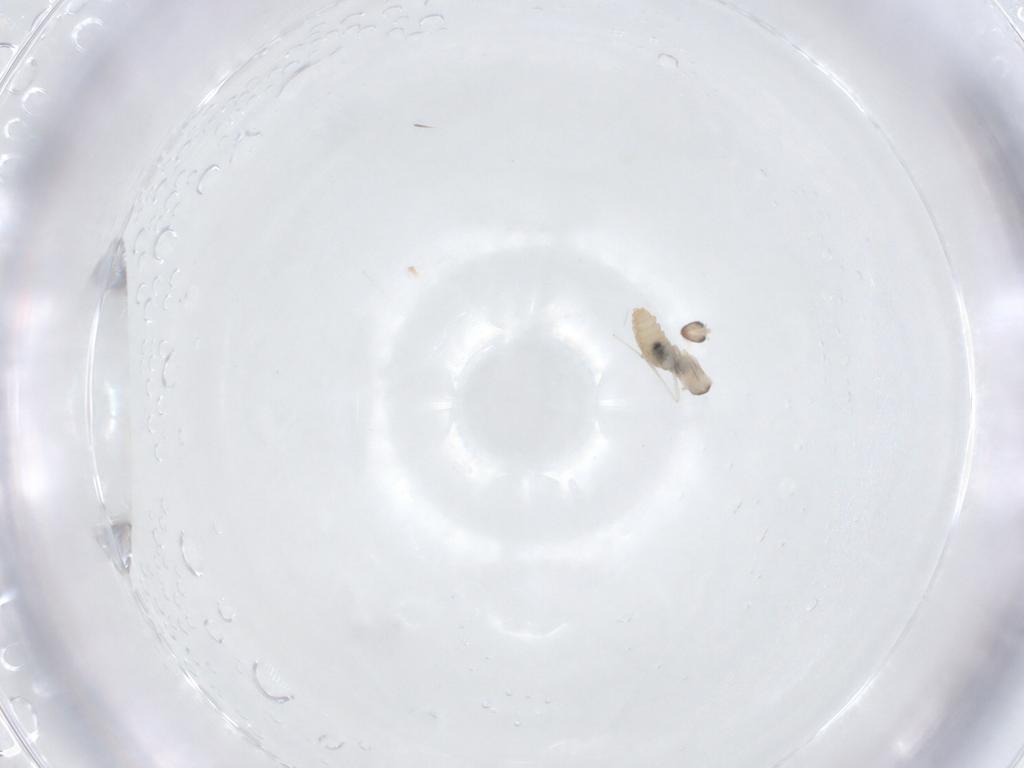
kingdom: Animalia
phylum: Arthropoda
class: Insecta
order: Diptera
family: Cecidomyiidae
